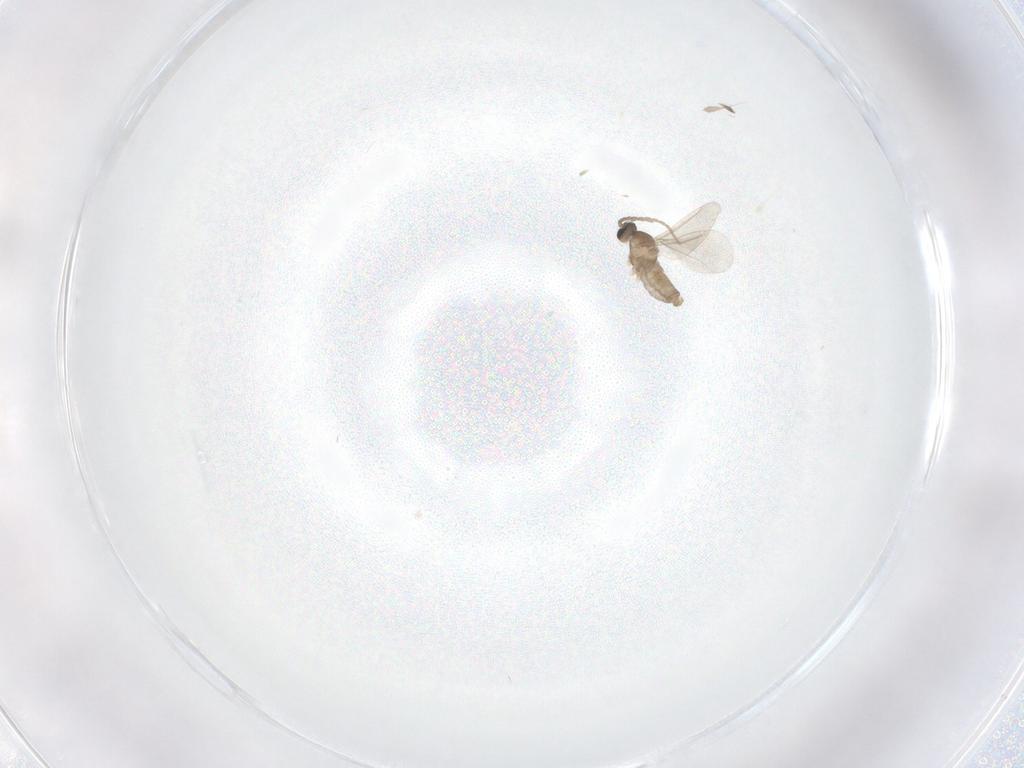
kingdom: Animalia
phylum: Arthropoda
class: Insecta
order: Diptera
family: Cecidomyiidae
